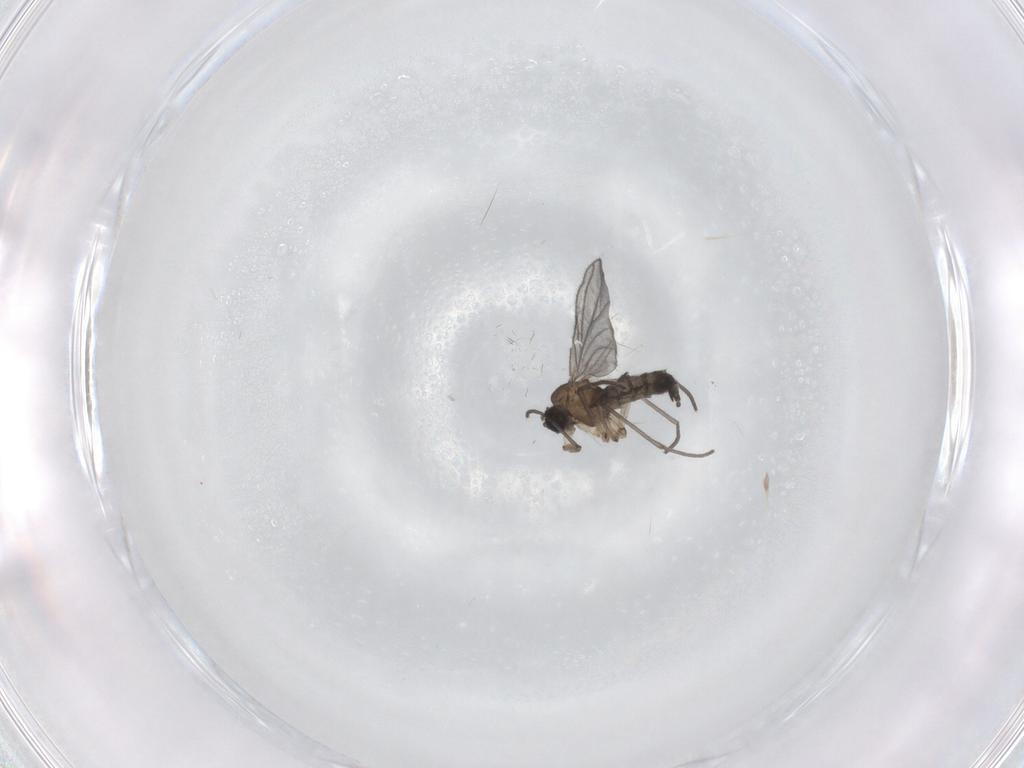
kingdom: Animalia
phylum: Arthropoda
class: Insecta
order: Diptera
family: Sciaridae
